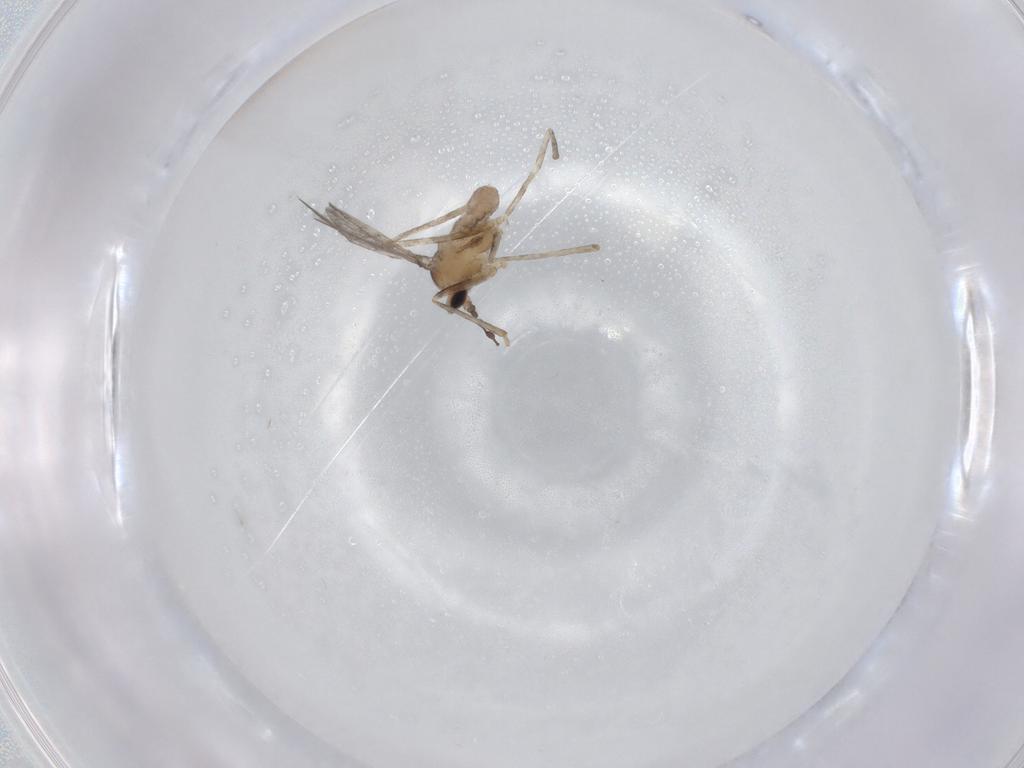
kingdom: Animalia
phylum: Arthropoda
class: Insecta
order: Diptera
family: Cecidomyiidae
